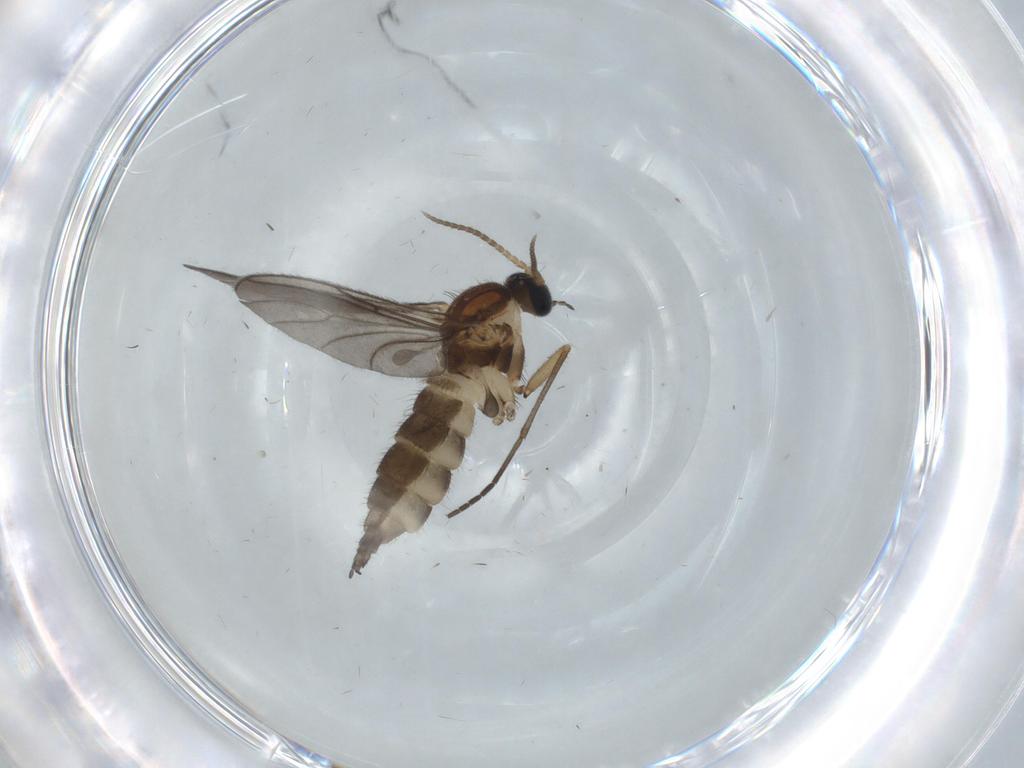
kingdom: Animalia
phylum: Arthropoda
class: Insecta
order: Diptera
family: Sciaridae
